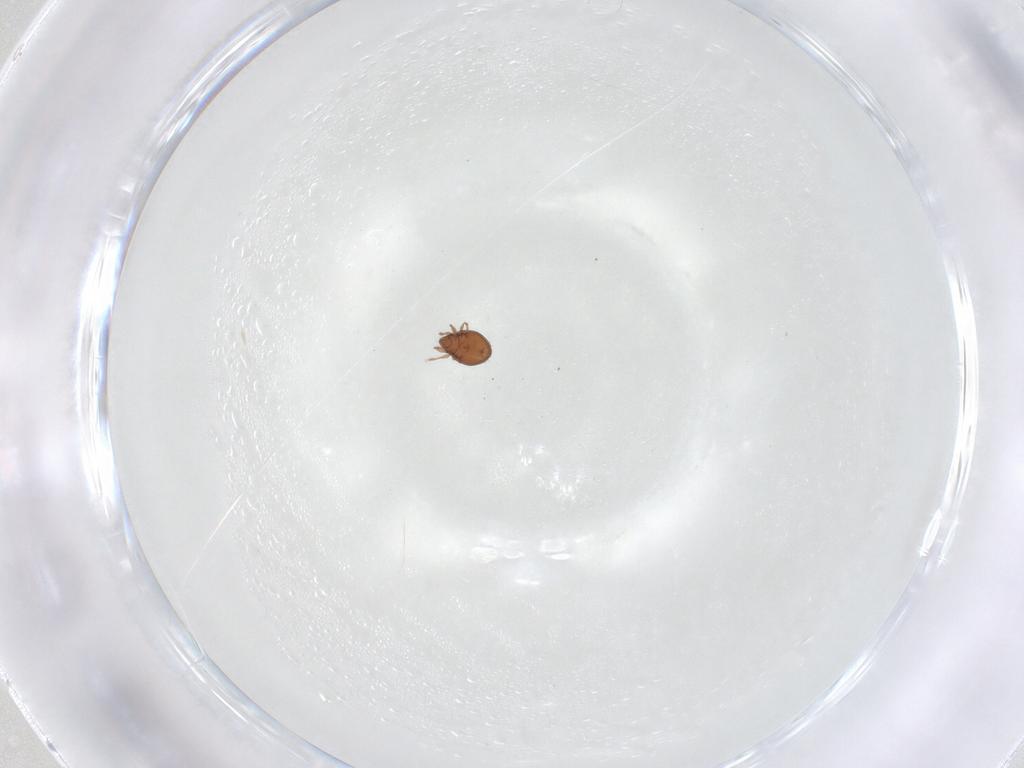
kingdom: Animalia
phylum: Arthropoda
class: Arachnida
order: Sarcoptiformes
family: Oribatulidae
